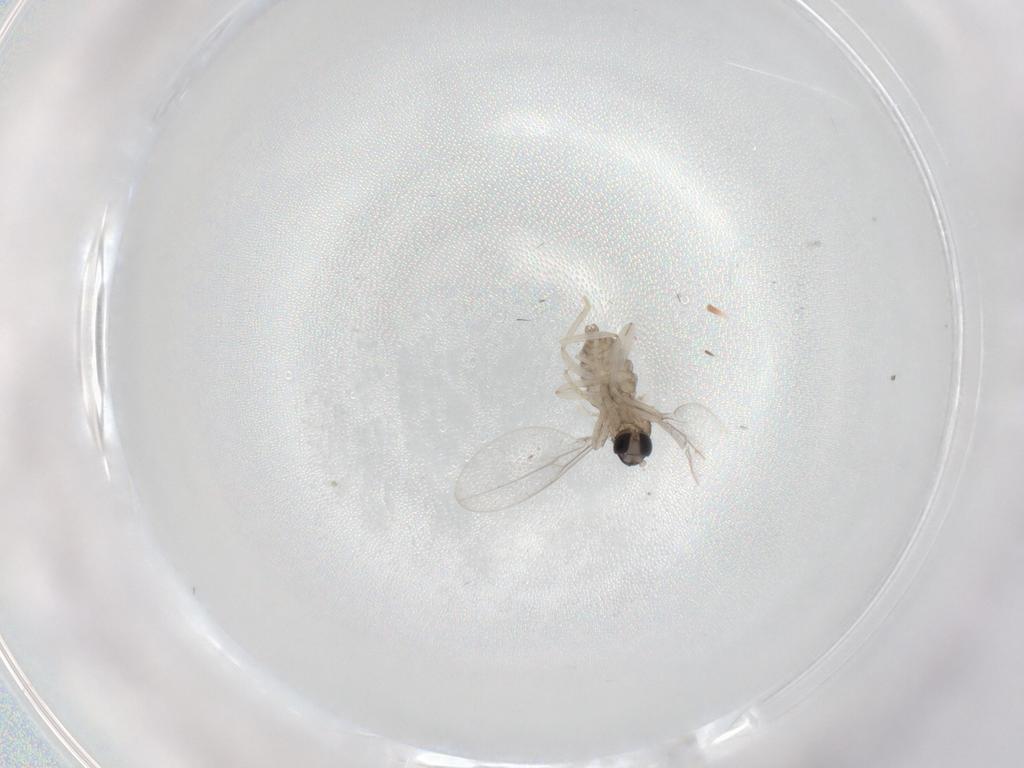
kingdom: Animalia
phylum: Arthropoda
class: Insecta
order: Diptera
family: Cecidomyiidae
